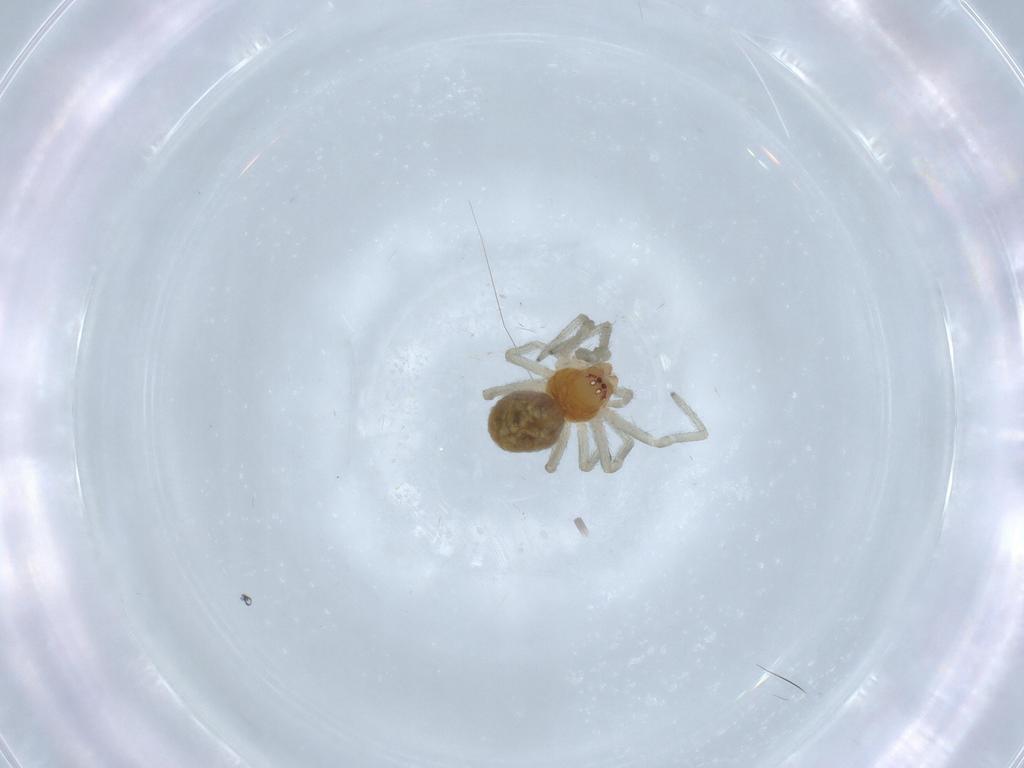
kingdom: Animalia
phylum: Arthropoda
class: Arachnida
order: Araneae
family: Dictynidae
